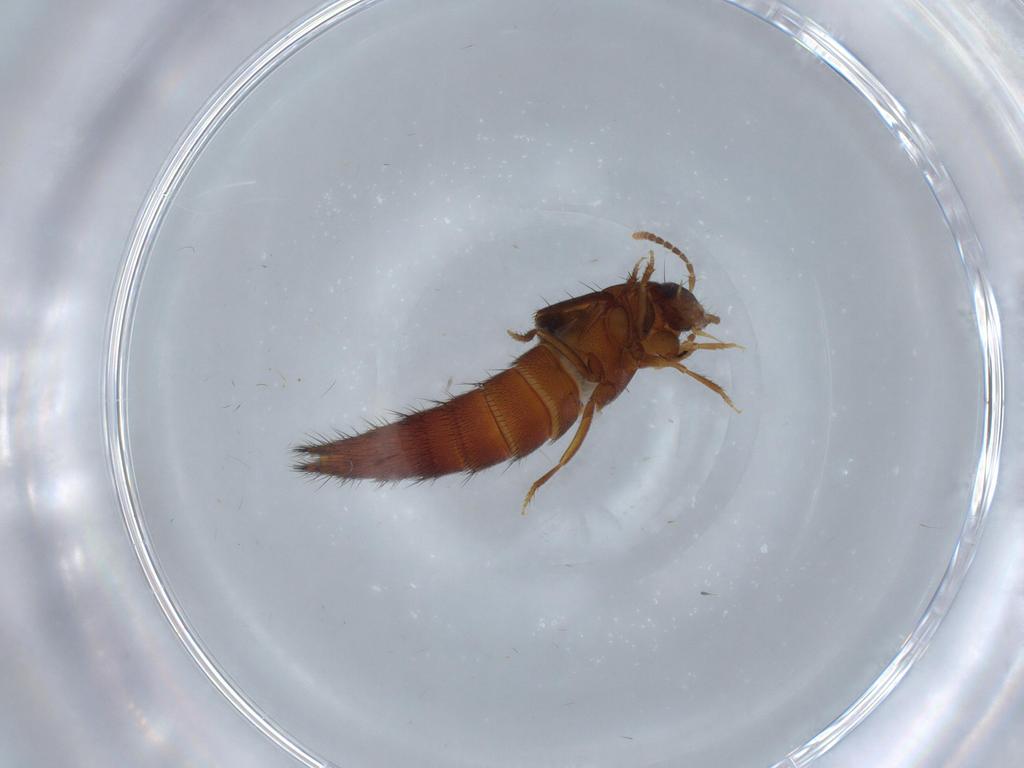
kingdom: Animalia
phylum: Arthropoda
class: Insecta
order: Coleoptera
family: Staphylinidae
